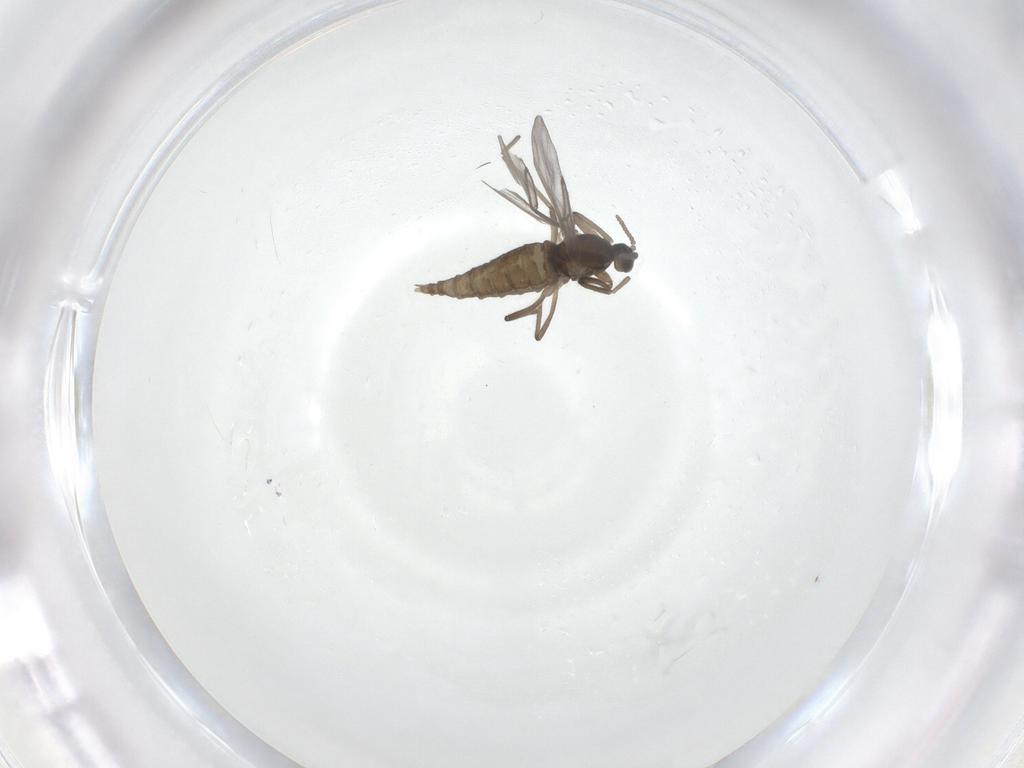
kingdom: Animalia
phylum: Arthropoda
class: Insecta
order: Diptera
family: Cecidomyiidae
